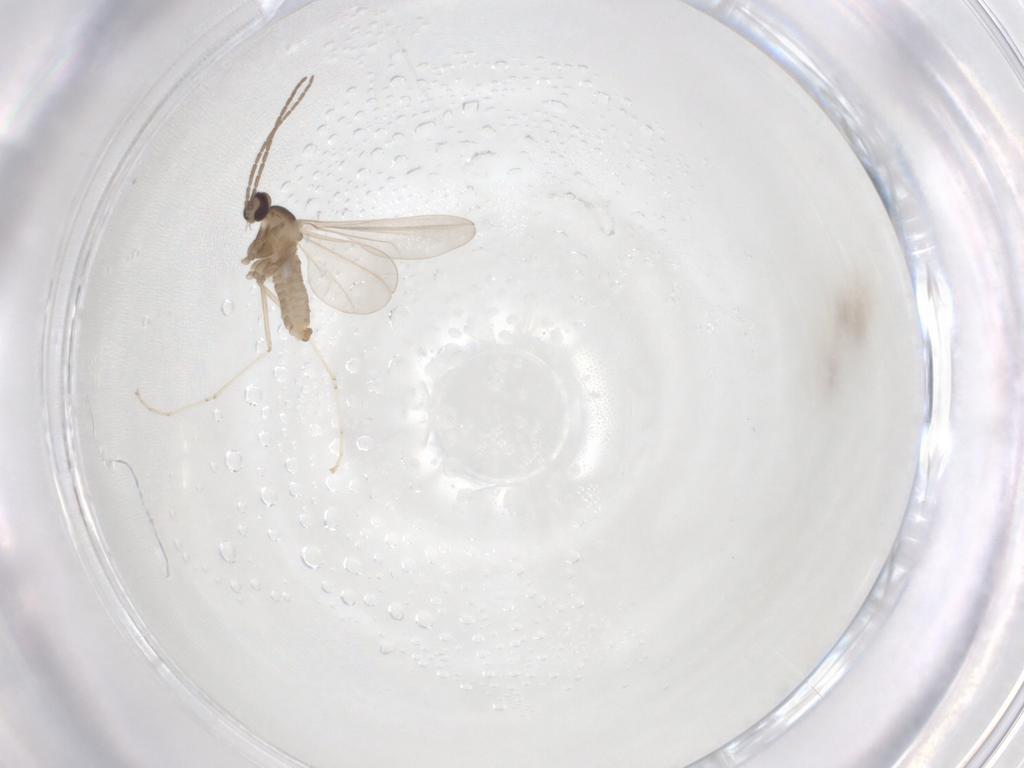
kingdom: Animalia
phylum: Arthropoda
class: Insecta
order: Diptera
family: Cecidomyiidae
